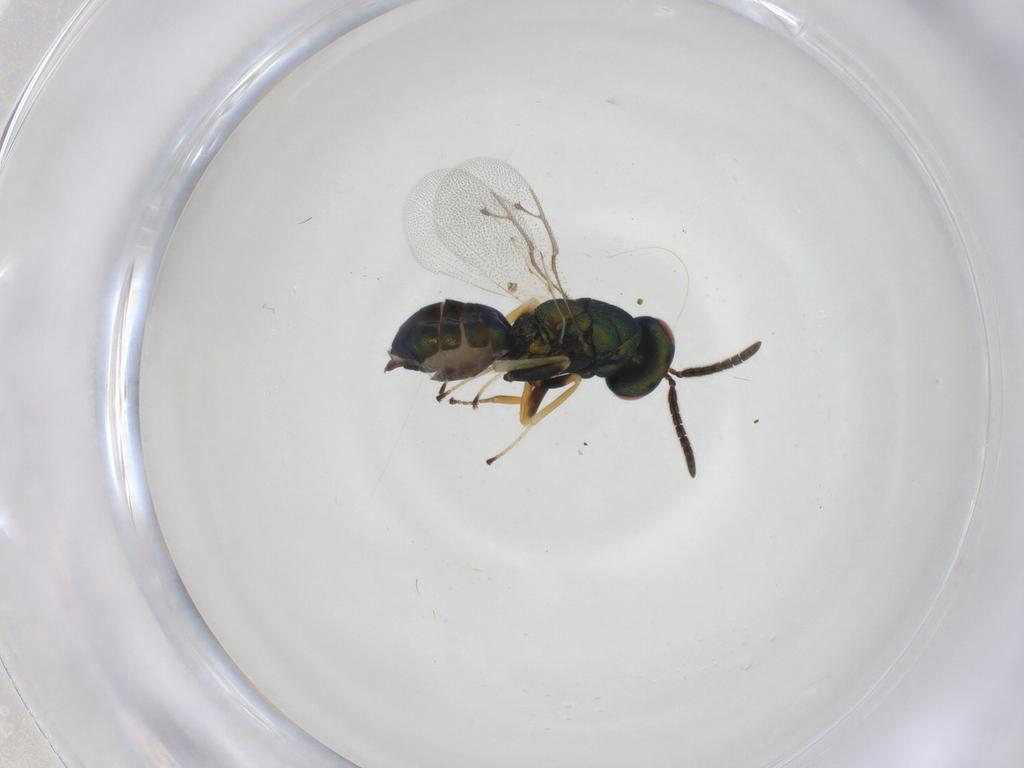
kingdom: Animalia
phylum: Arthropoda
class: Insecta
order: Hymenoptera
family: Pteromalidae
